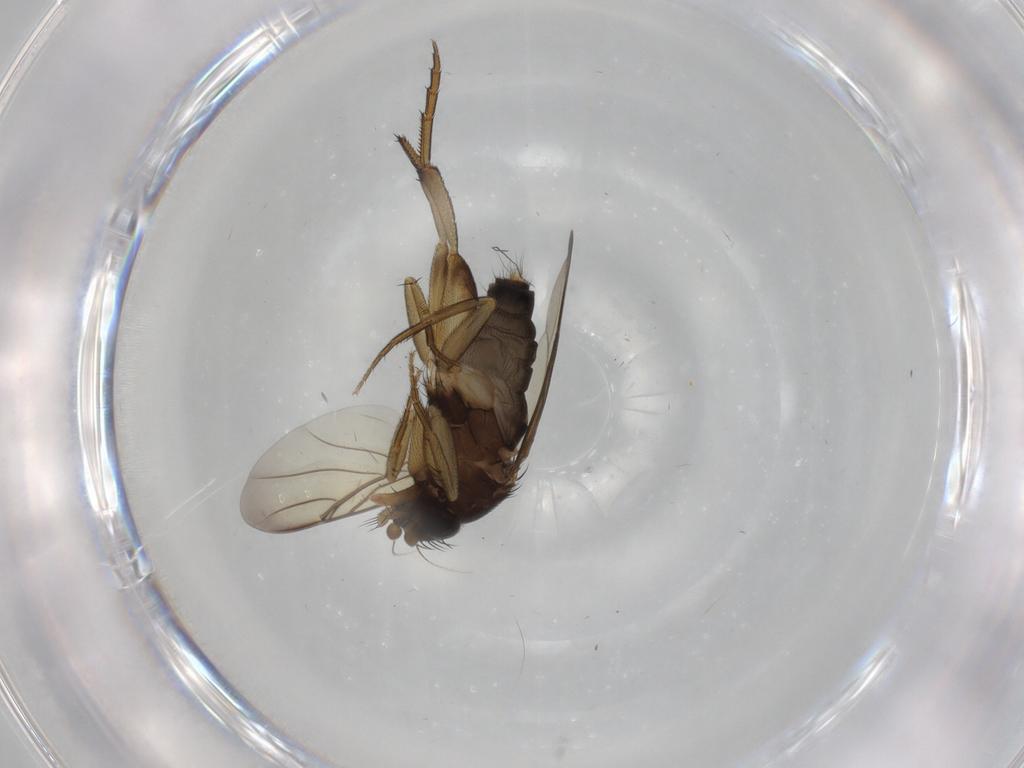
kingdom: Animalia
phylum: Arthropoda
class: Insecta
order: Diptera
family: Phoridae
